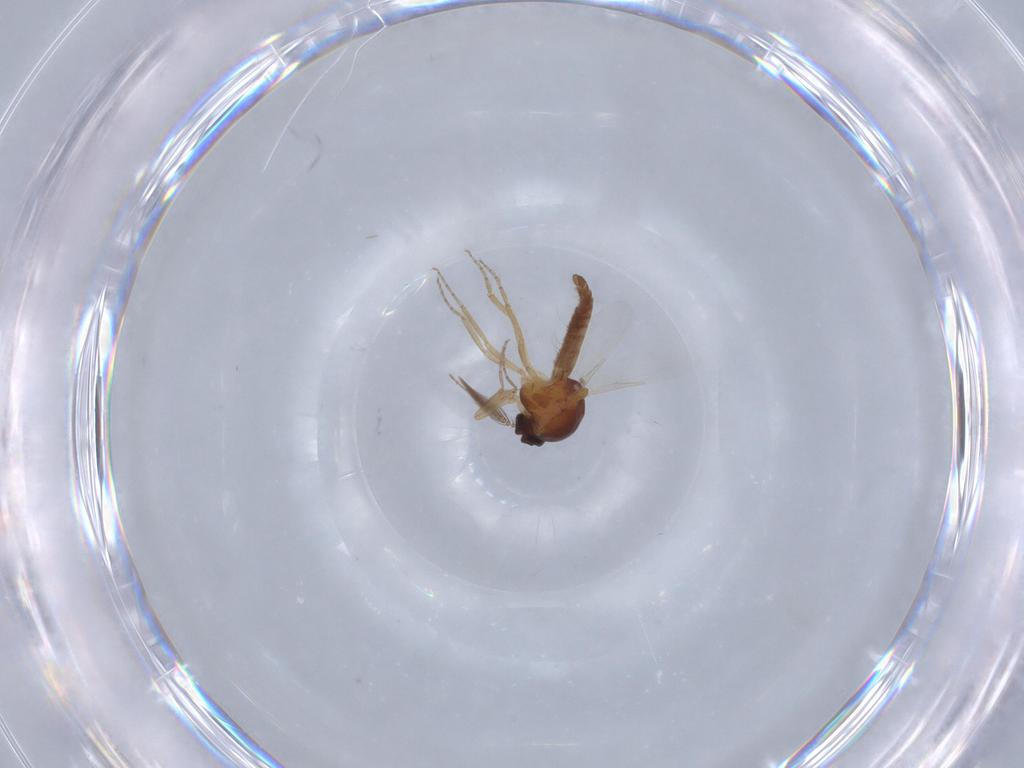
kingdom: Animalia
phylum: Arthropoda
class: Insecta
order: Diptera
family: Ceratopogonidae
